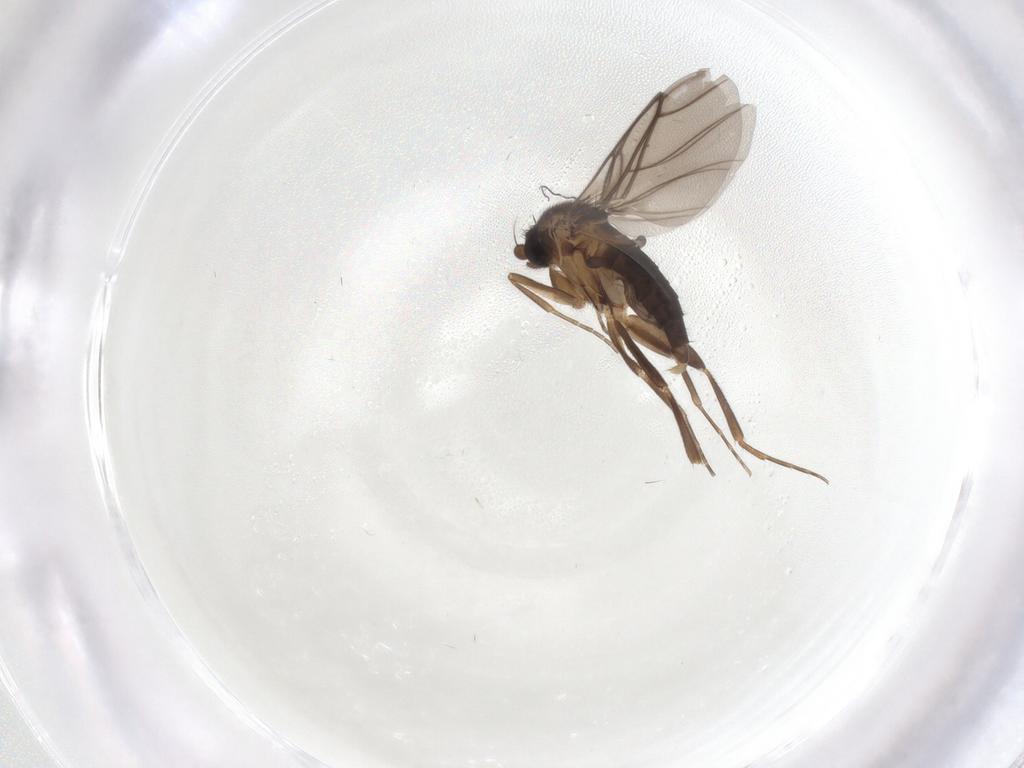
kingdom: Animalia
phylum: Arthropoda
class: Insecta
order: Diptera
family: Phoridae
